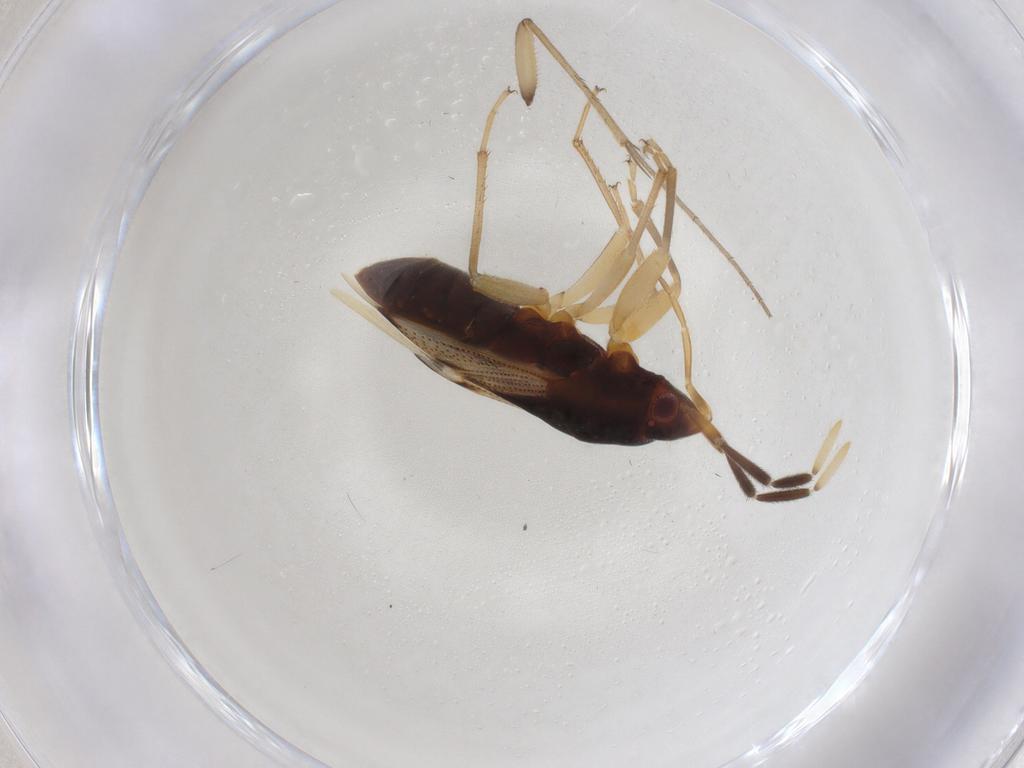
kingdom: Animalia
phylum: Arthropoda
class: Insecta
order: Hemiptera
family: Rhyparochromidae
